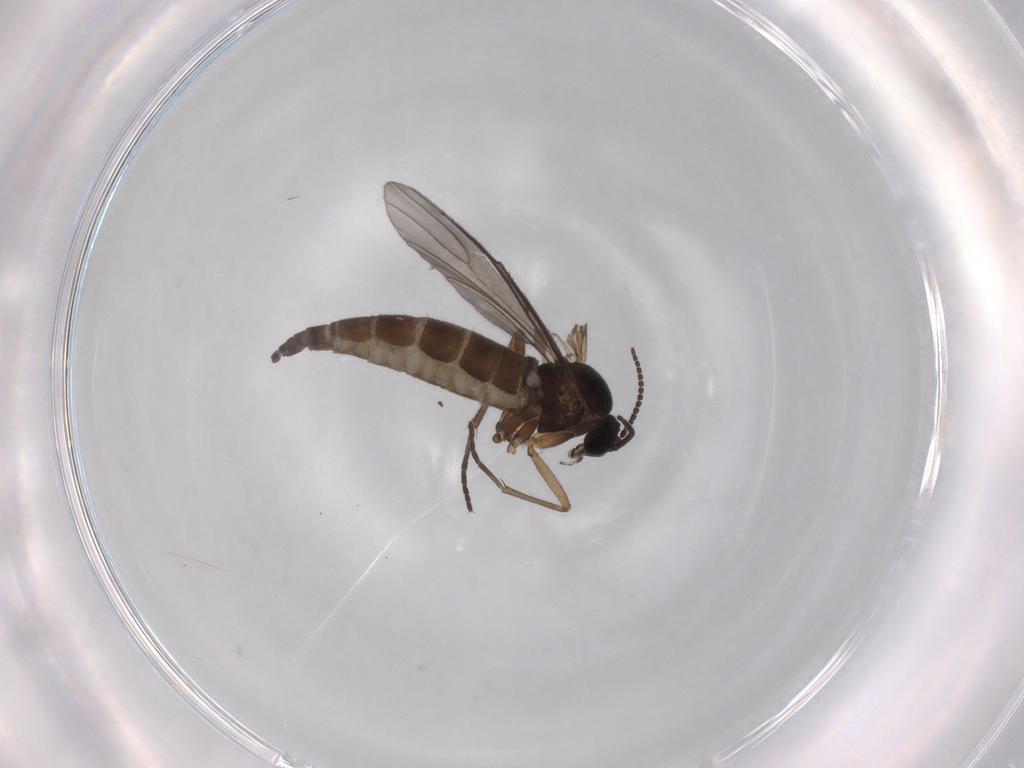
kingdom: Animalia
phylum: Arthropoda
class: Insecta
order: Diptera
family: Sciaridae
